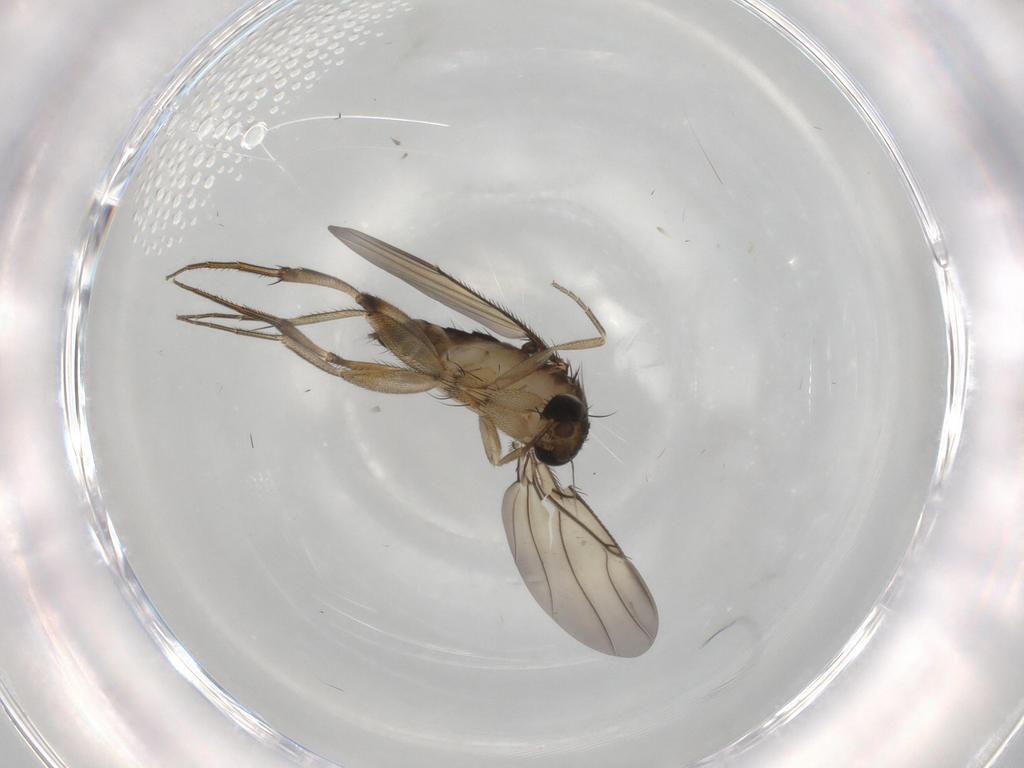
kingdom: Animalia
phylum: Arthropoda
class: Insecta
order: Diptera
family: Phoridae
